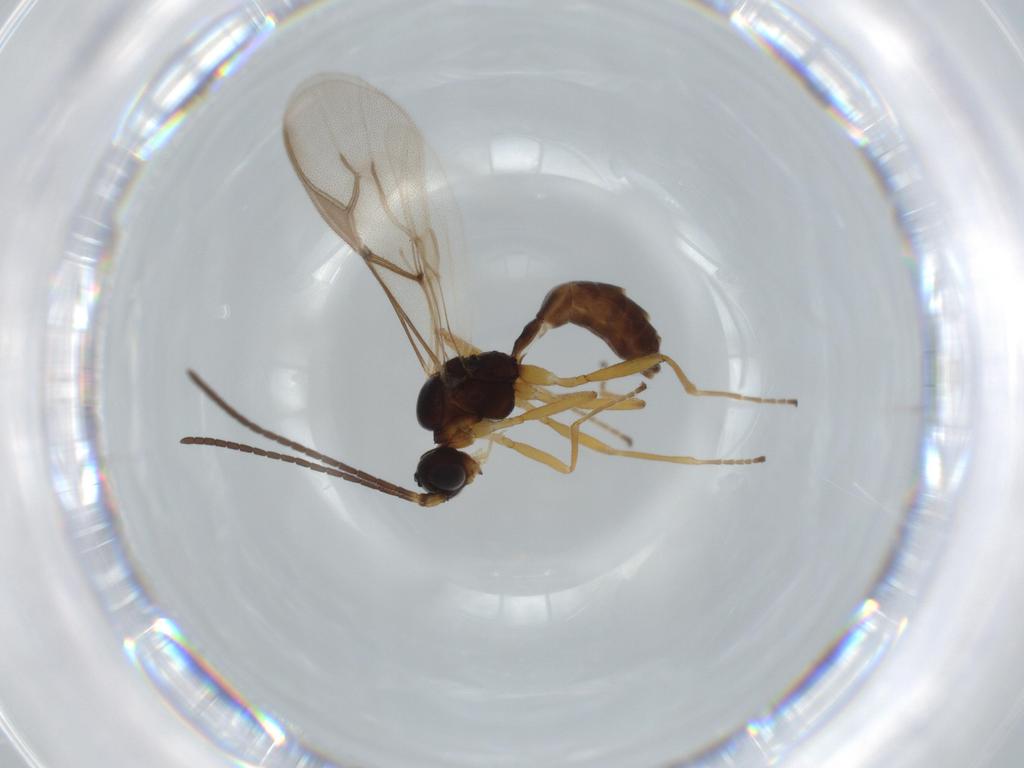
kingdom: Animalia
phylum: Arthropoda
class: Insecta
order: Hymenoptera
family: Braconidae
